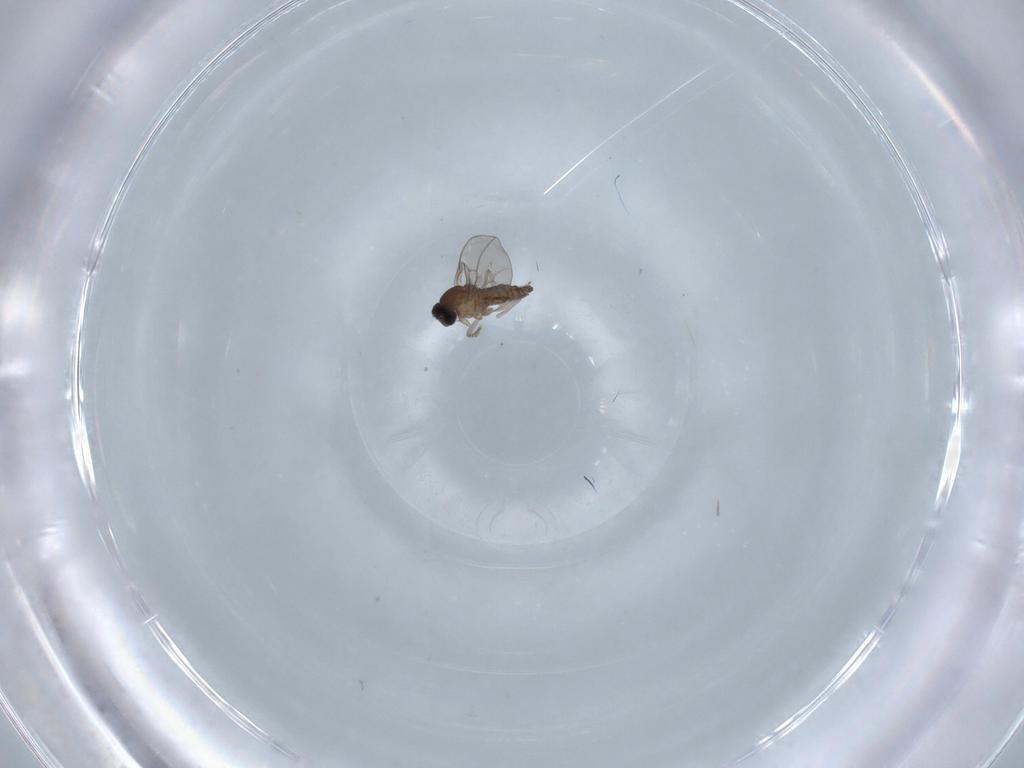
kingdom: Animalia
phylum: Arthropoda
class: Insecta
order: Diptera
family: Cecidomyiidae
